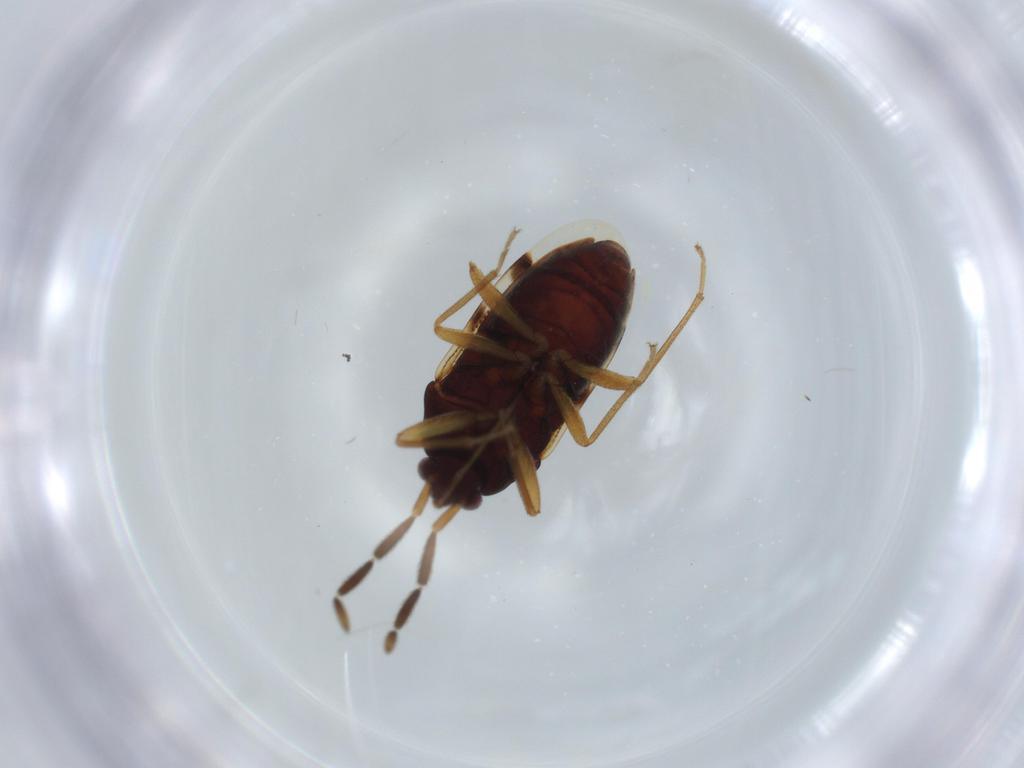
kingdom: Animalia
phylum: Arthropoda
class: Insecta
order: Hemiptera
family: Rhyparochromidae
